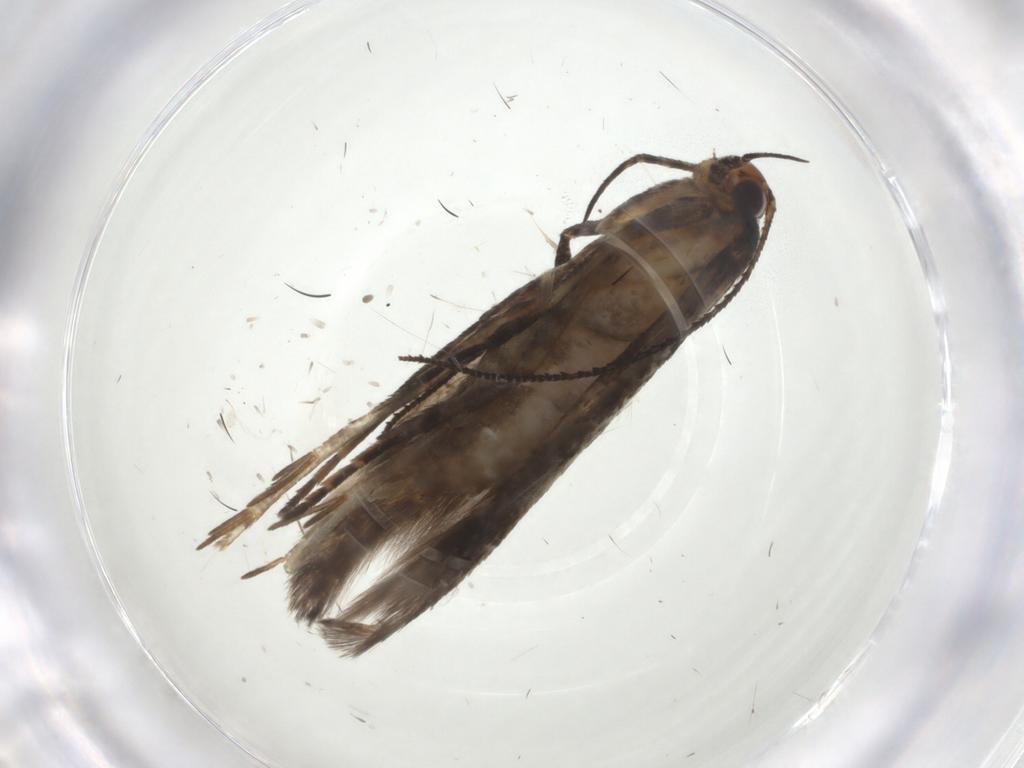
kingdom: Animalia
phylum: Arthropoda
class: Insecta
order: Lepidoptera
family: Gelechiidae
